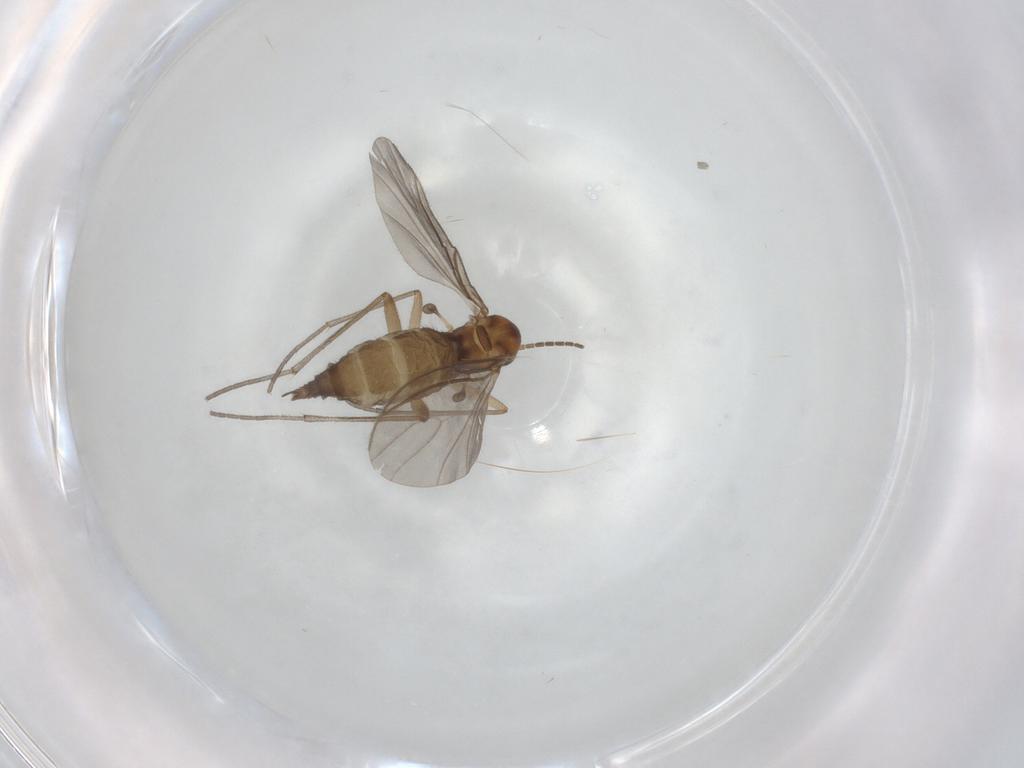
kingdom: Animalia
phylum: Arthropoda
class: Insecta
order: Diptera
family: Sciaridae
